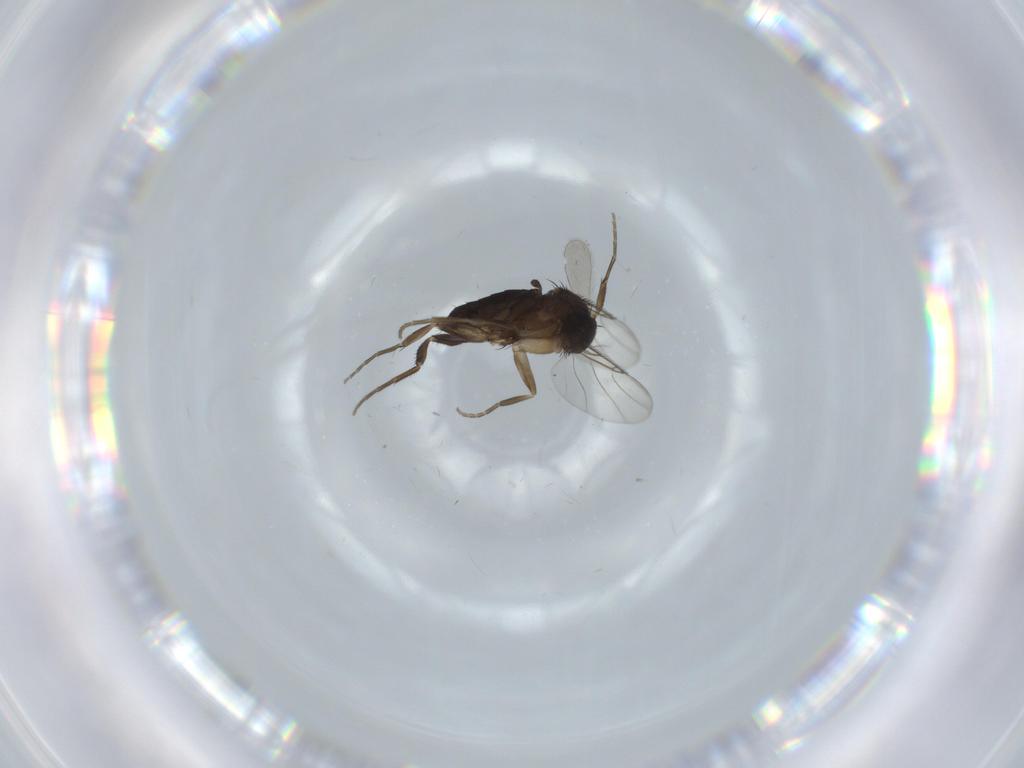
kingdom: Animalia
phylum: Arthropoda
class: Insecta
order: Diptera
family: Phoridae
